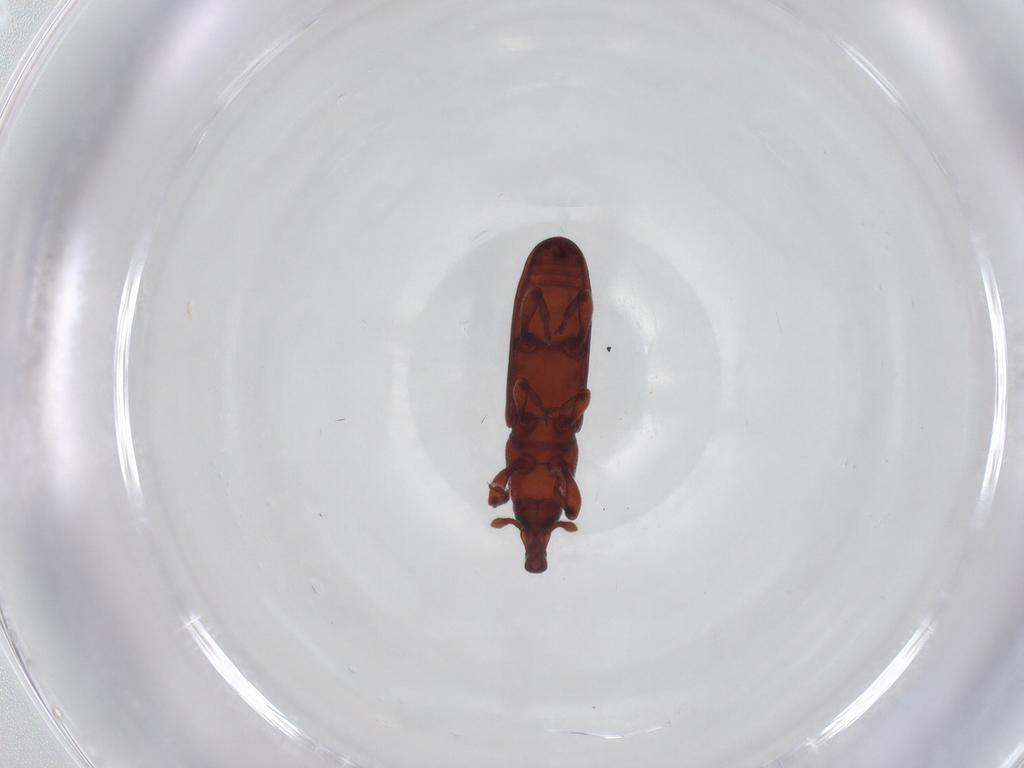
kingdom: Animalia
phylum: Arthropoda
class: Insecta
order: Coleoptera
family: Curculionidae
